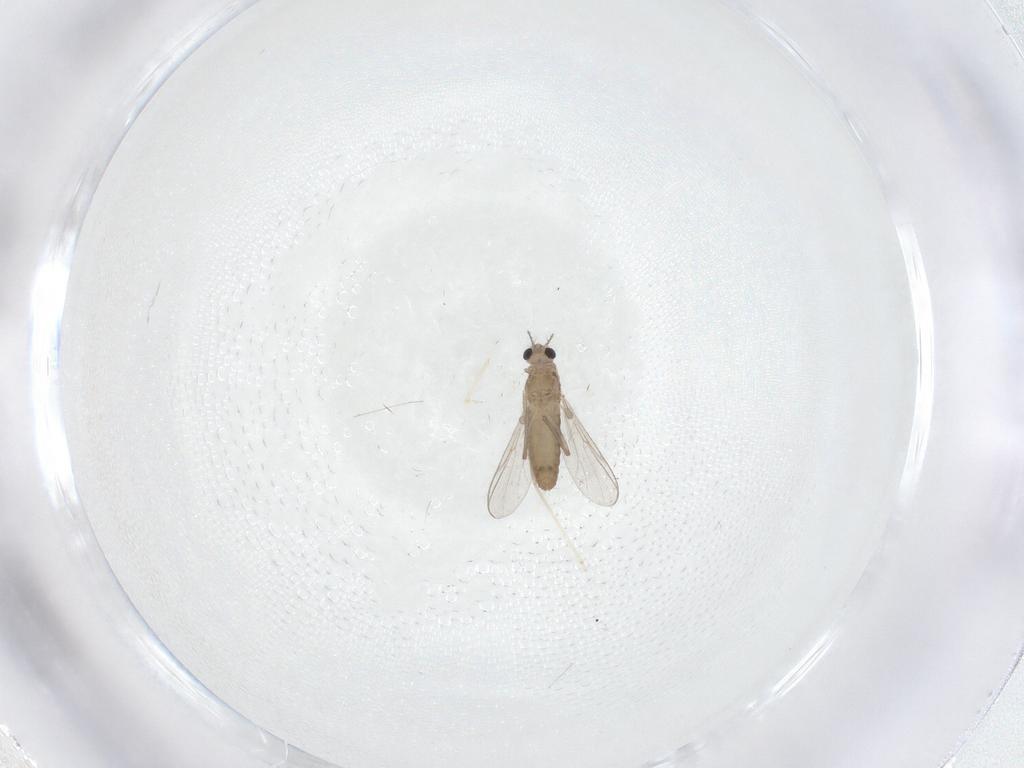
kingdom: Animalia
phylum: Arthropoda
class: Insecta
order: Diptera
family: Chironomidae
